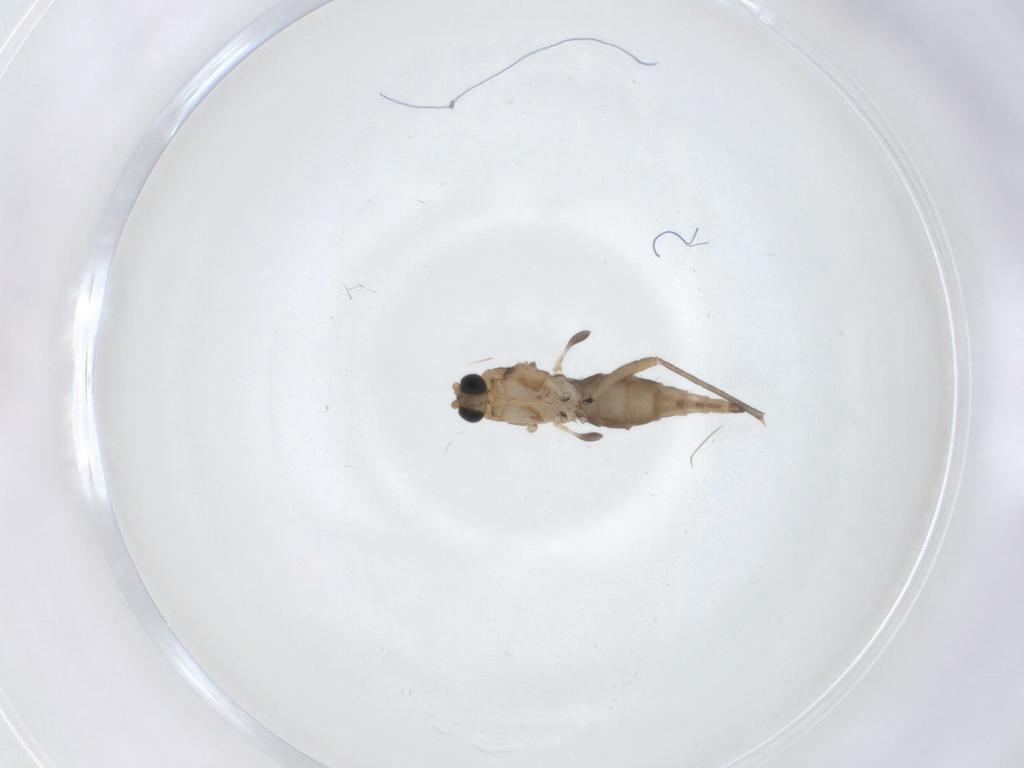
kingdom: Animalia
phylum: Arthropoda
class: Insecta
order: Diptera
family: Sciaridae
